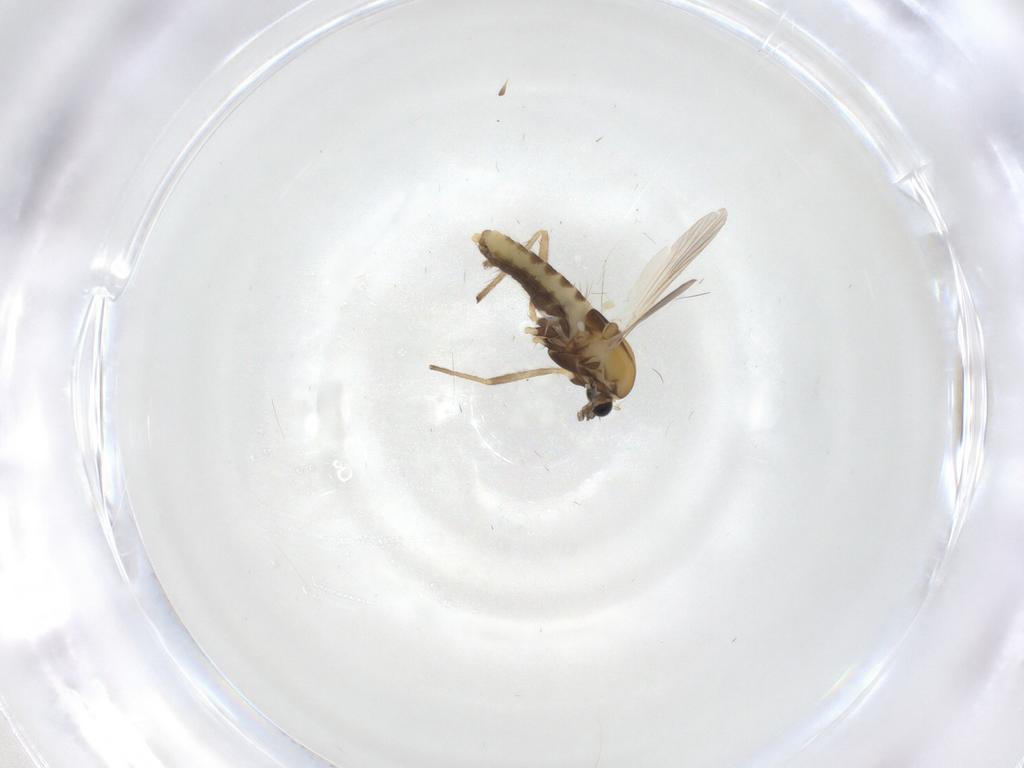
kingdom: Animalia
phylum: Arthropoda
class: Insecta
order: Diptera
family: Chironomidae
